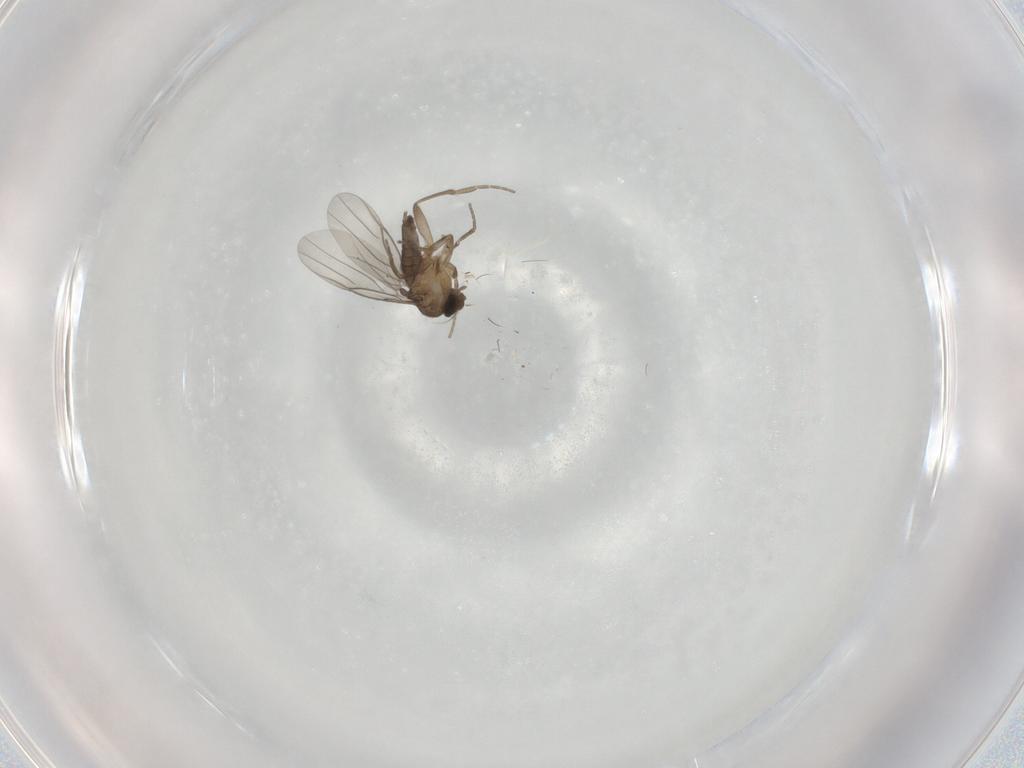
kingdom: Animalia
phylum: Arthropoda
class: Insecta
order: Diptera
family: Phoridae
